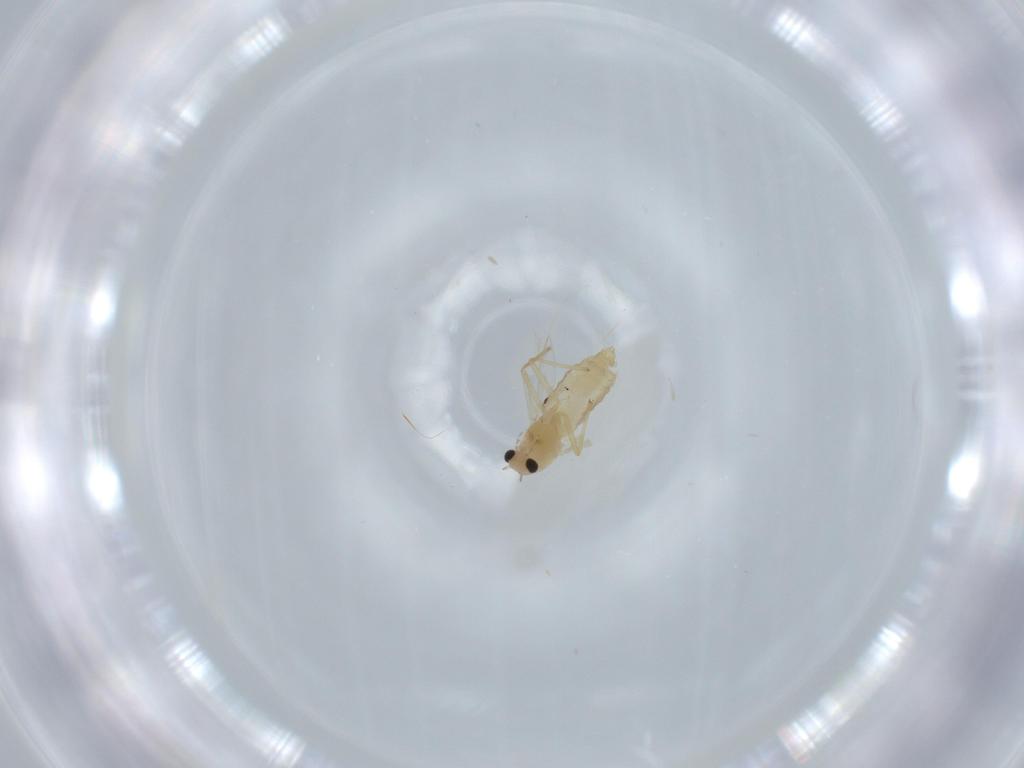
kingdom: Animalia
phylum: Arthropoda
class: Insecta
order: Diptera
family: Chironomidae
